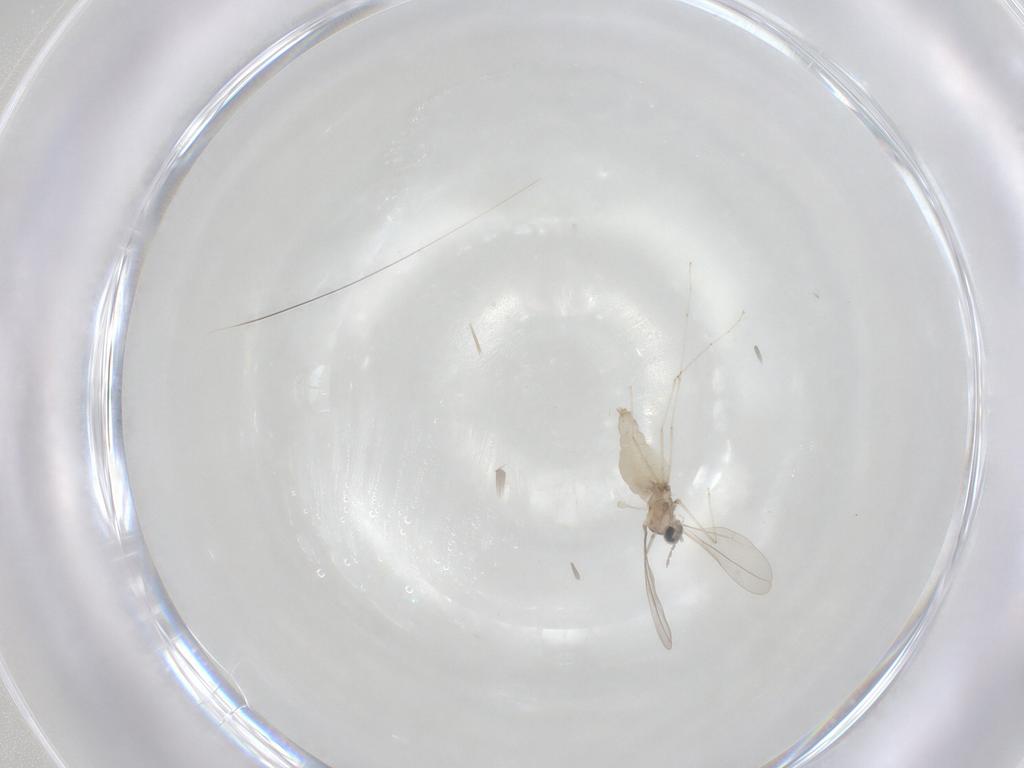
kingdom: Animalia
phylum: Arthropoda
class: Insecta
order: Diptera
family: Cecidomyiidae
